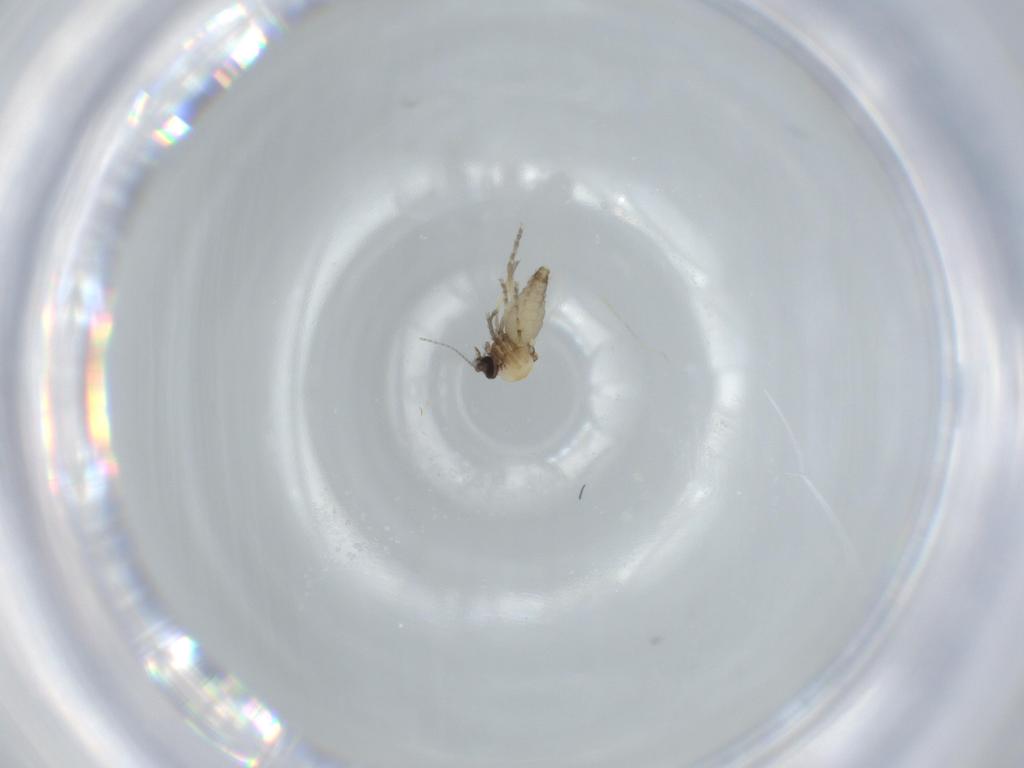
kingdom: Animalia
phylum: Arthropoda
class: Insecta
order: Diptera
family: Ceratopogonidae
